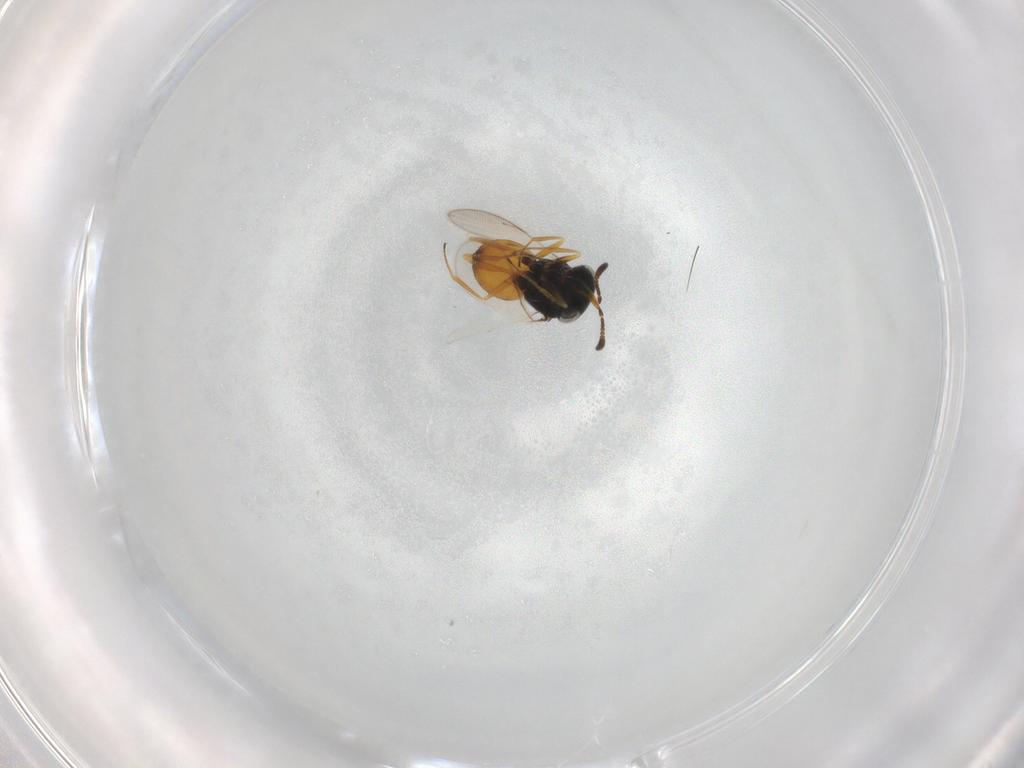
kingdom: Animalia
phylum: Arthropoda
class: Insecta
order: Hymenoptera
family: Scelionidae
